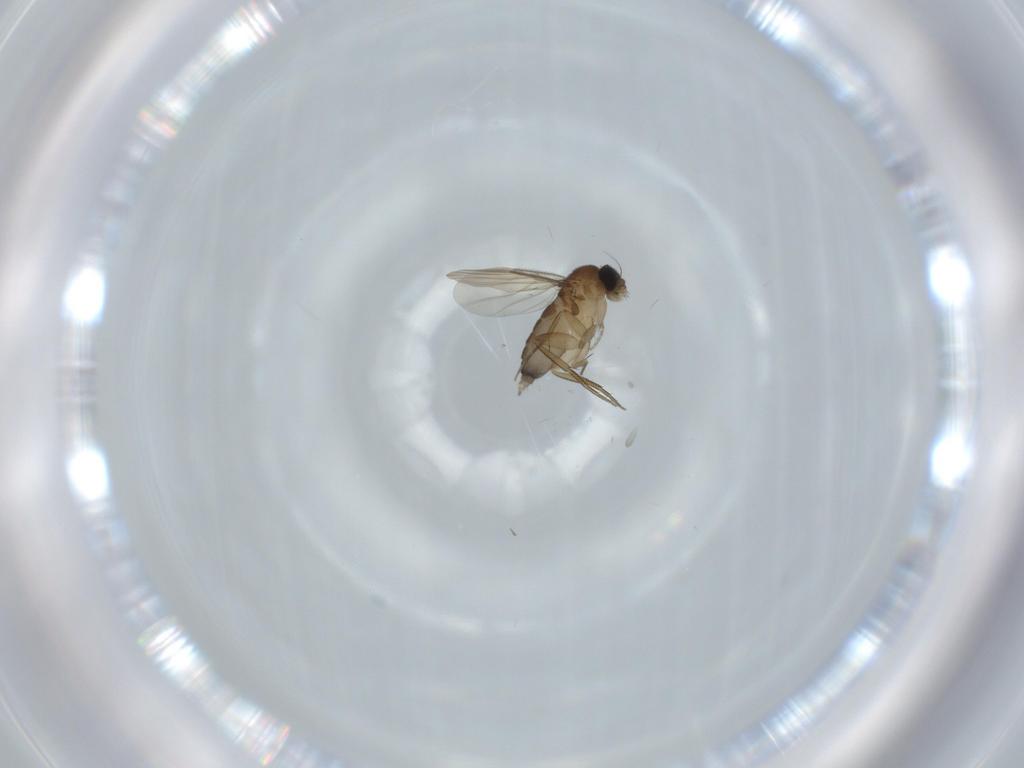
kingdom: Animalia
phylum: Arthropoda
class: Insecta
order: Diptera
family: Phoridae
